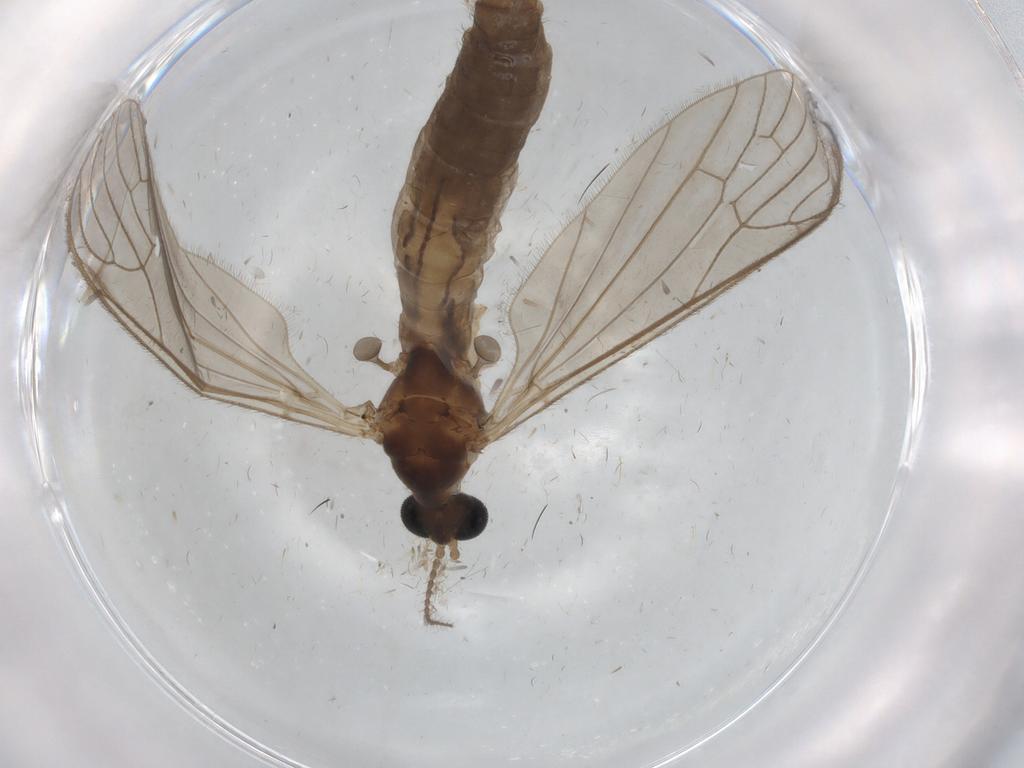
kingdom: Animalia
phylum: Arthropoda
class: Insecta
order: Diptera
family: Limoniidae
